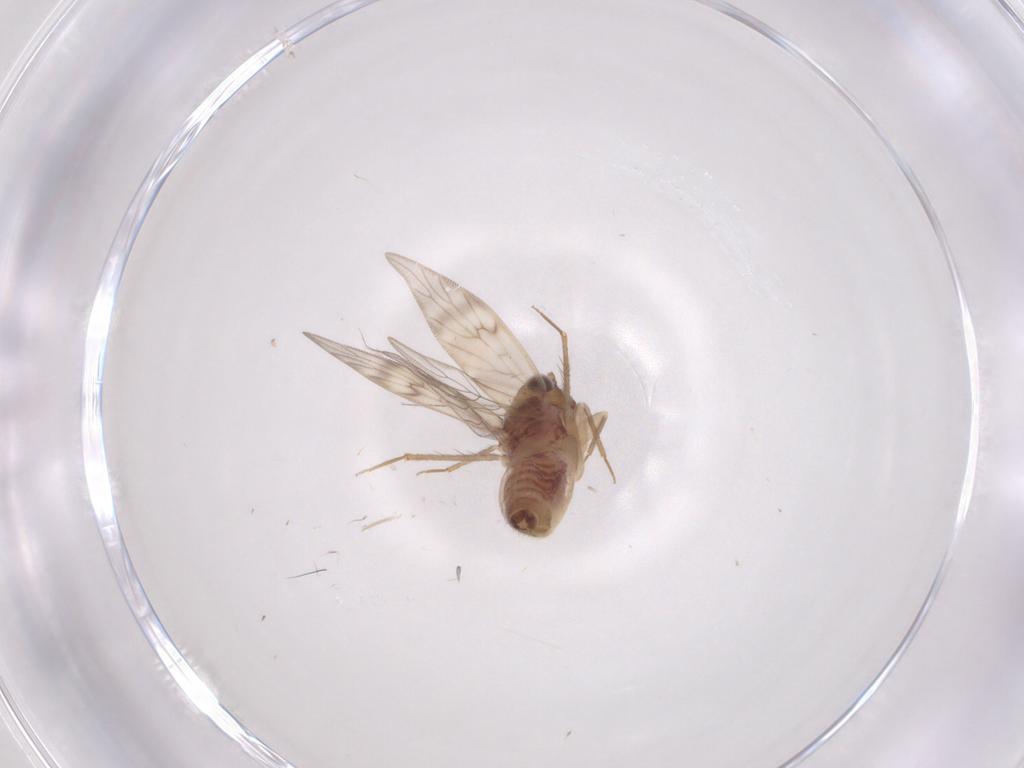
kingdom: Animalia
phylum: Arthropoda
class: Insecta
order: Psocodea
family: Lepidopsocidae
